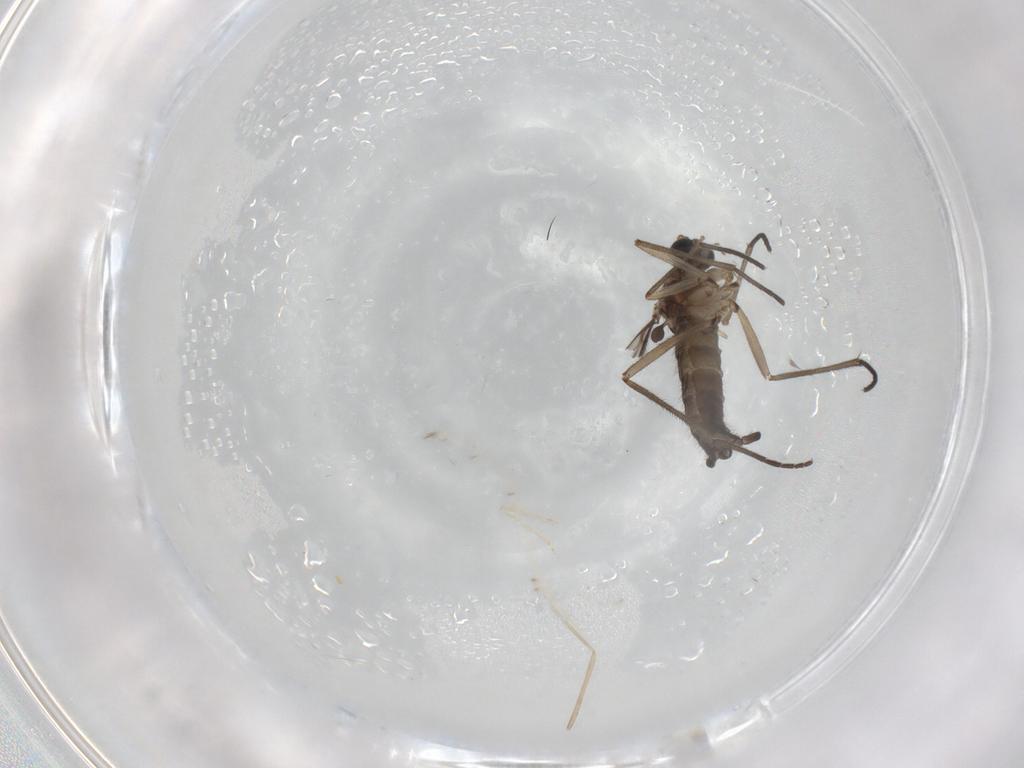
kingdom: Animalia
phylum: Arthropoda
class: Insecta
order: Diptera
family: Sciaridae
